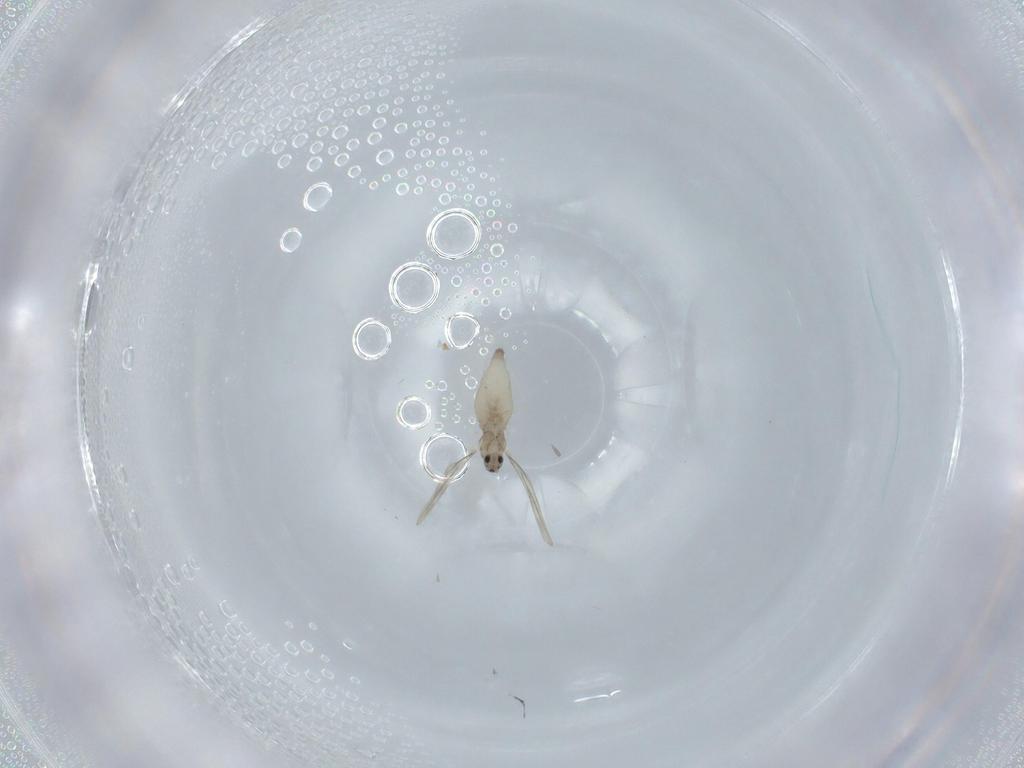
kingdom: Animalia
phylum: Arthropoda
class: Insecta
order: Diptera
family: Cecidomyiidae
